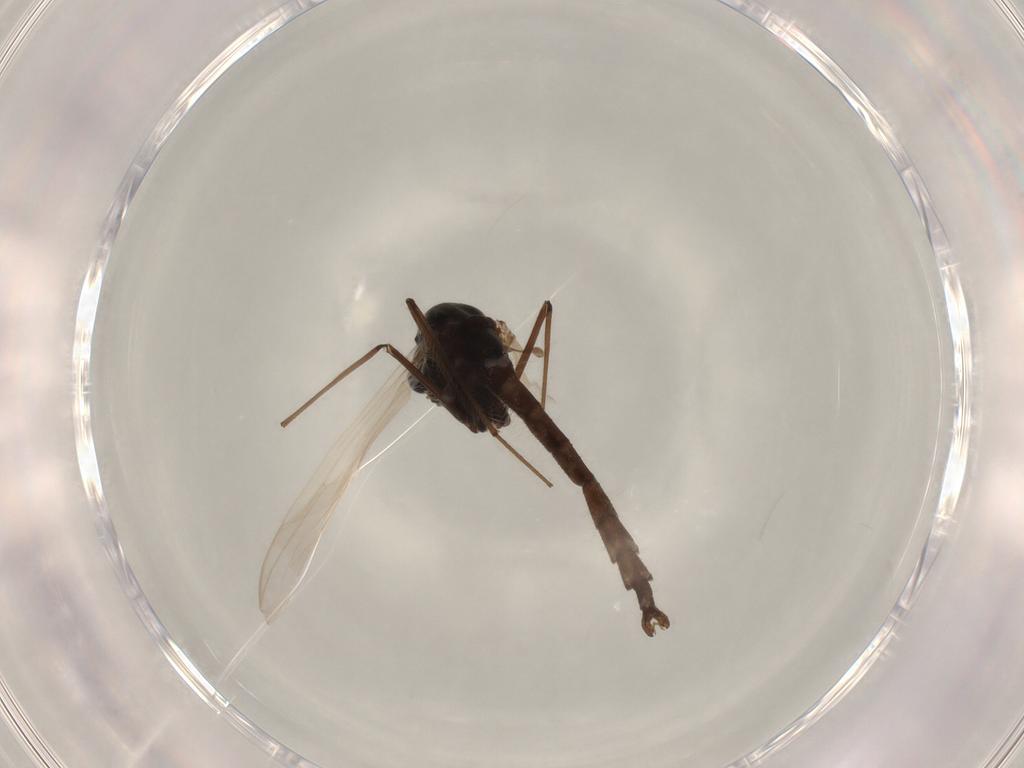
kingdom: Animalia
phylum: Arthropoda
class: Insecta
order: Diptera
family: Chironomidae
